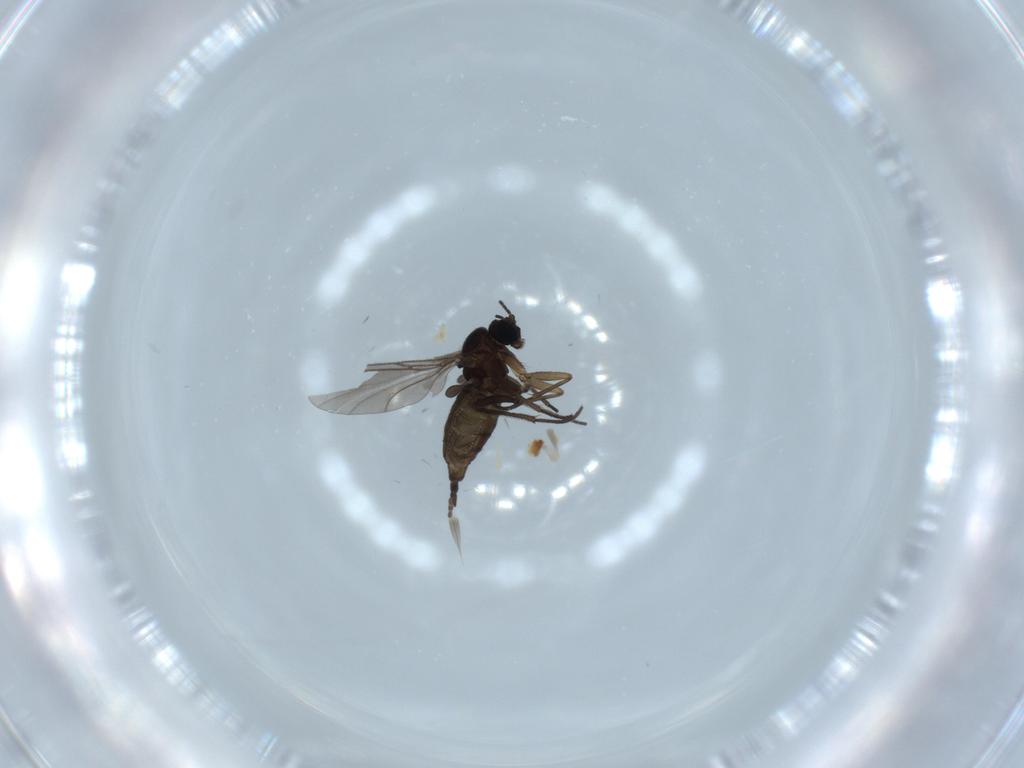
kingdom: Animalia
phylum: Arthropoda
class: Insecta
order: Diptera
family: Sciaridae
